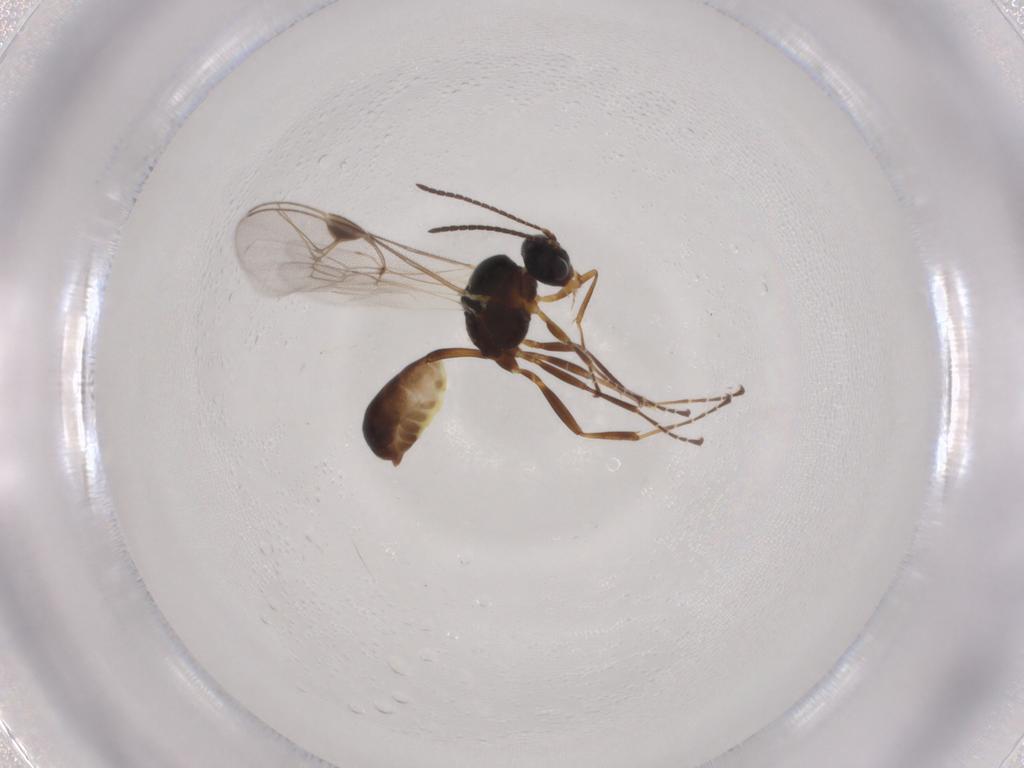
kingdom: Animalia
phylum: Arthropoda
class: Insecta
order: Hymenoptera
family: Ichneumonidae
